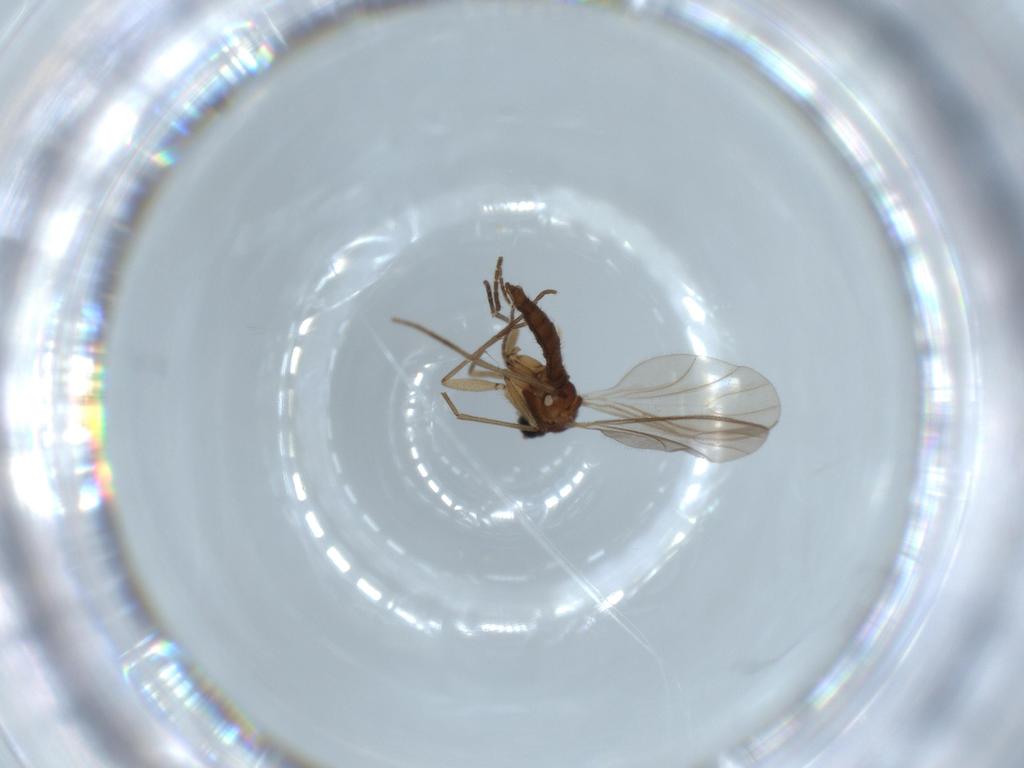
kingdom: Animalia
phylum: Arthropoda
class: Insecta
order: Diptera
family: Sciaridae
